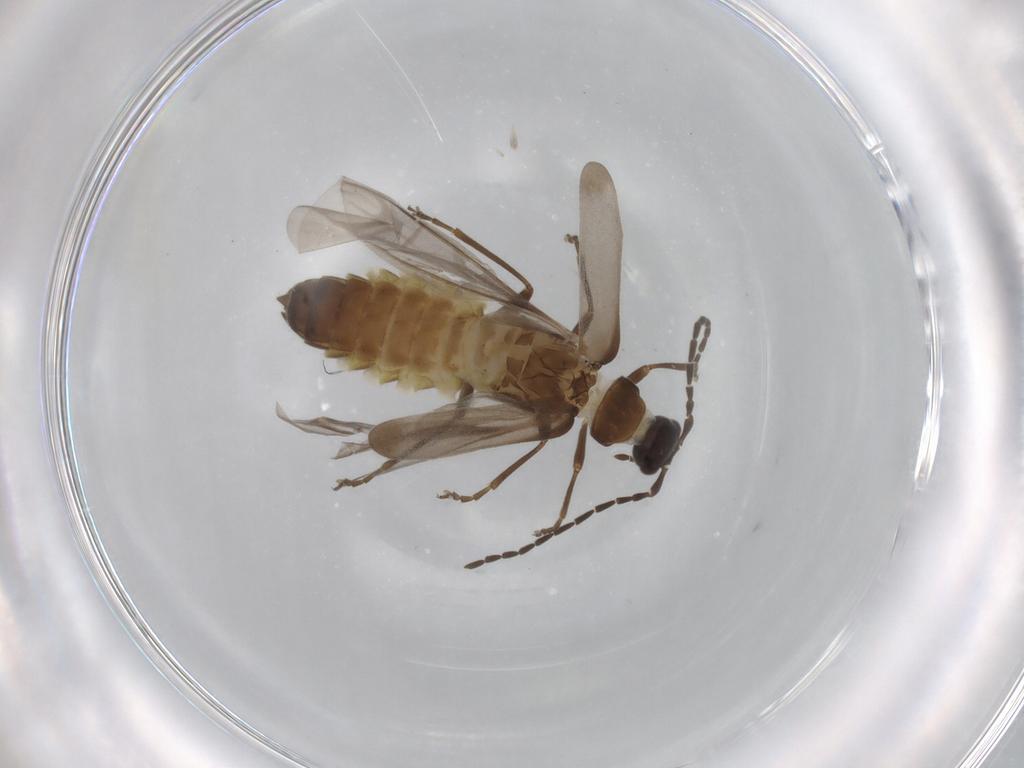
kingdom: Animalia
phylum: Arthropoda
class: Insecta
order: Coleoptera
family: Cantharidae
